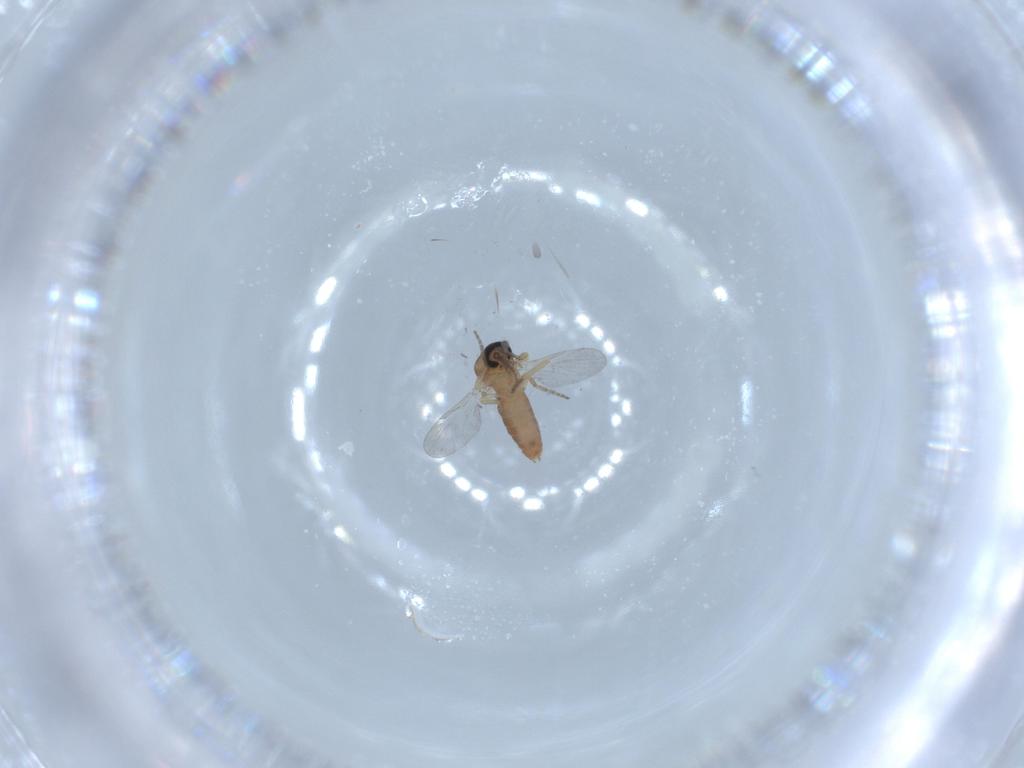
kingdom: Animalia
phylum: Arthropoda
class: Insecta
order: Diptera
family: Ceratopogonidae
